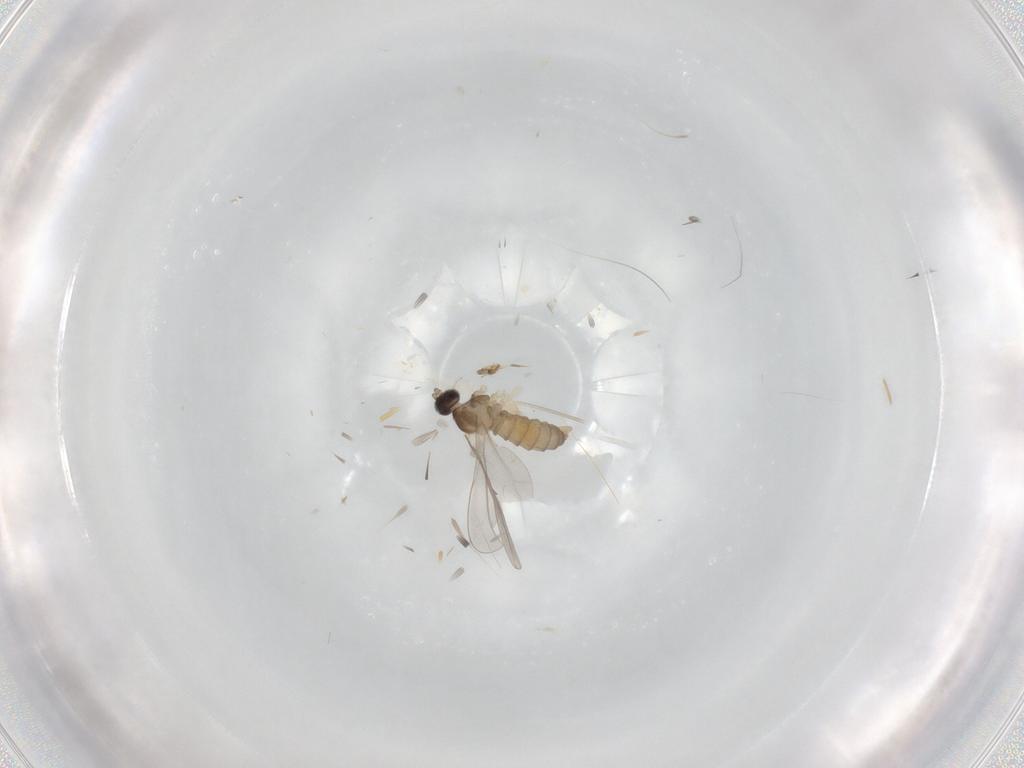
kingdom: Animalia
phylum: Arthropoda
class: Insecta
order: Diptera
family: Cecidomyiidae
